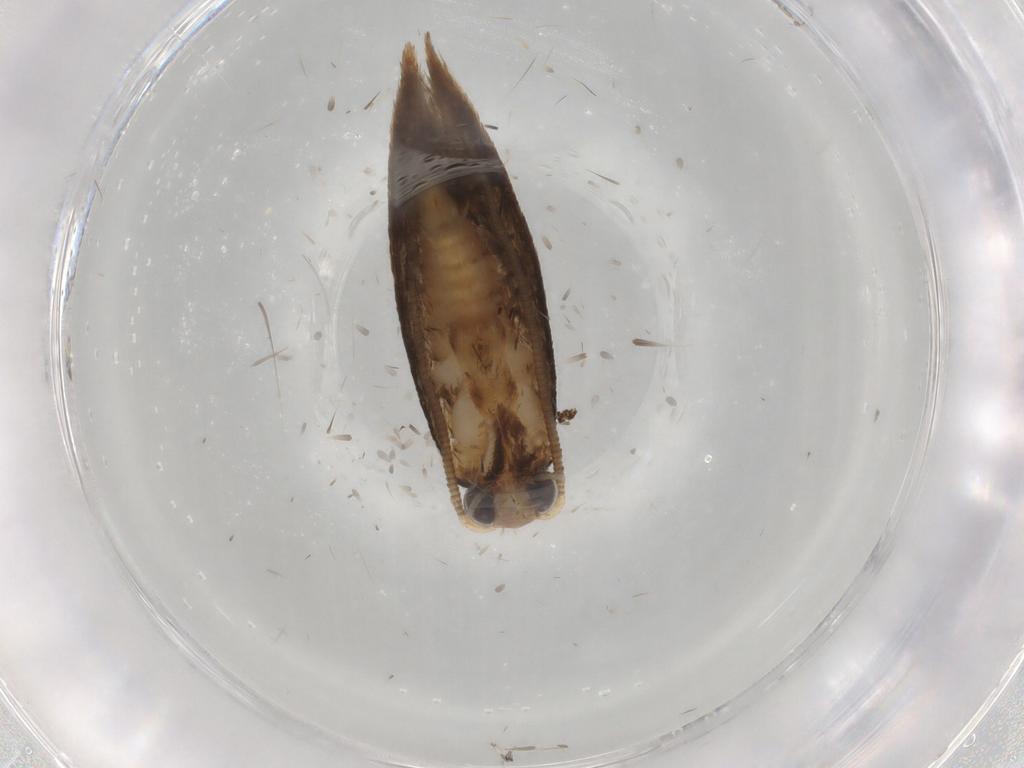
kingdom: Animalia
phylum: Arthropoda
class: Insecta
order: Lepidoptera
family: Tineidae
